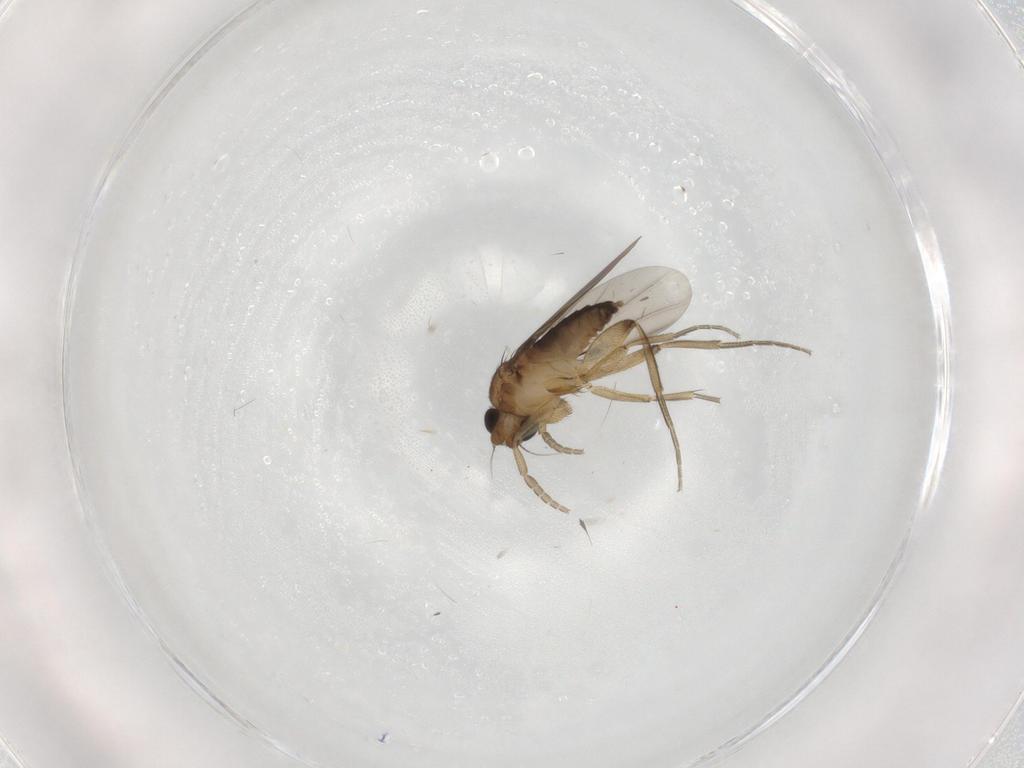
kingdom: Animalia
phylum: Arthropoda
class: Insecta
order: Diptera
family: Phoridae
